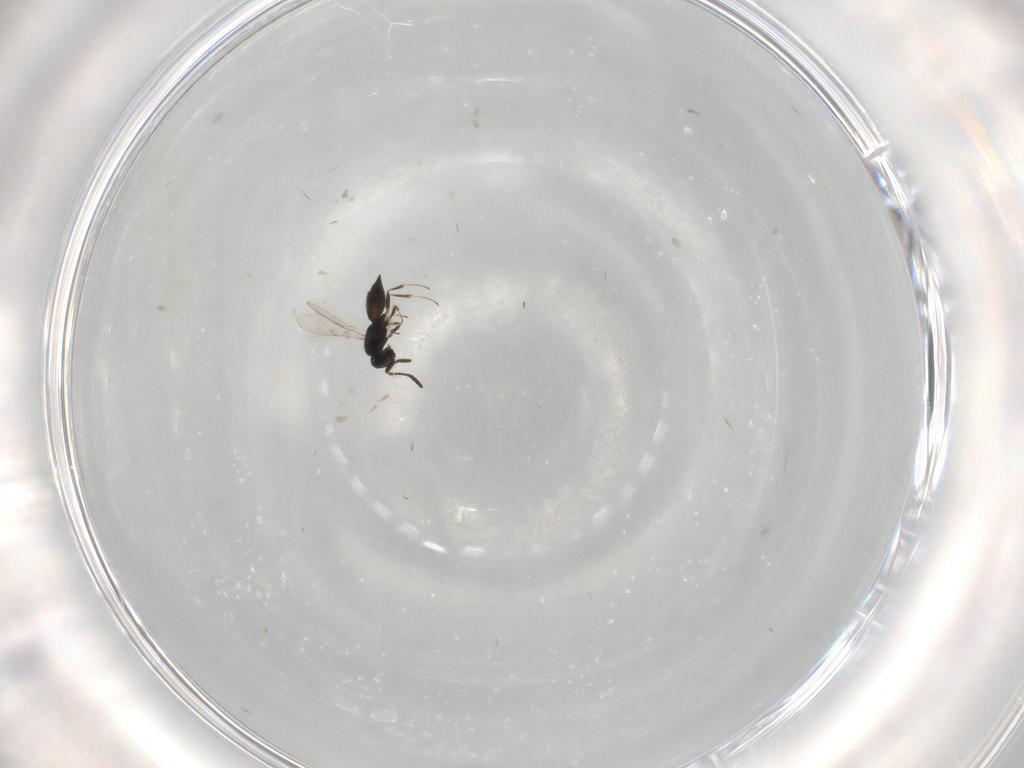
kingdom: Animalia
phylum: Arthropoda
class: Insecta
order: Hymenoptera
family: Scelionidae
